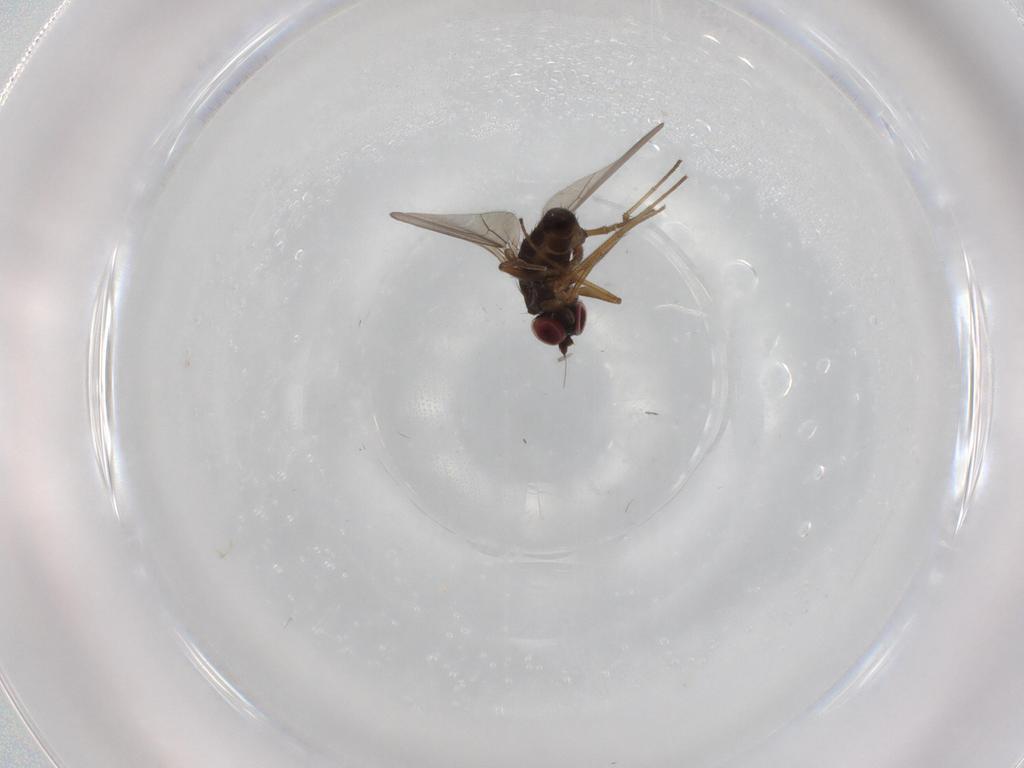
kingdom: Animalia
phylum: Arthropoda
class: Insecta
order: Diptera
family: Dolichopodidae
